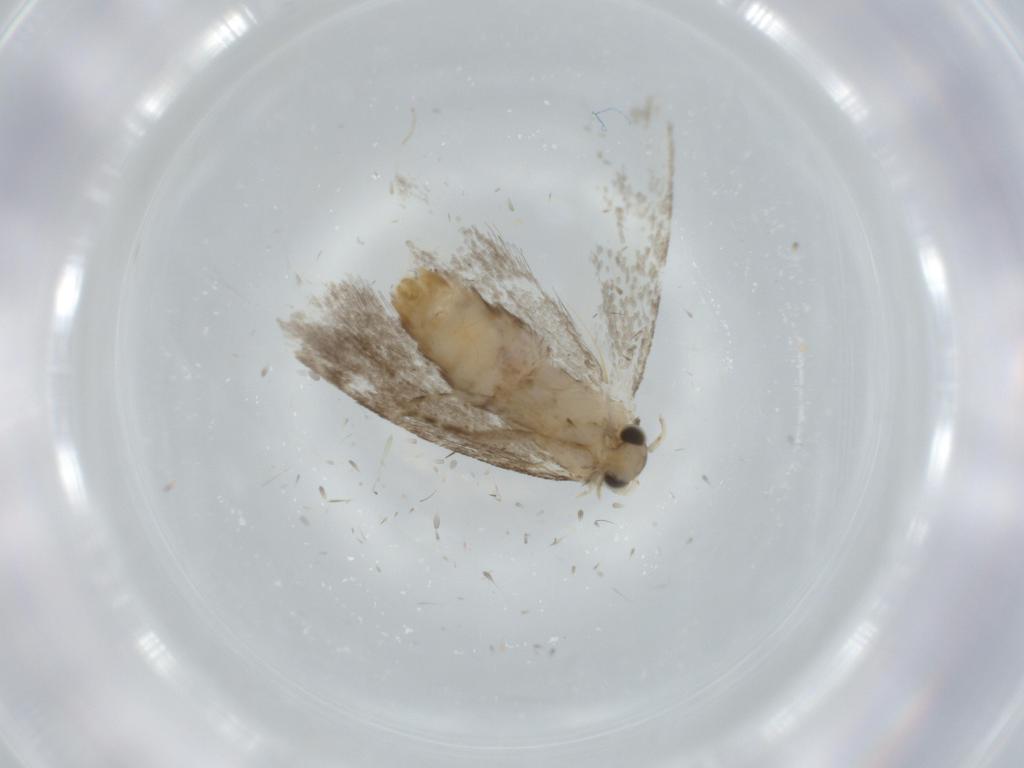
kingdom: Animalia
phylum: Arthropoda
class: Insecta
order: Lepidoptera
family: Tineidae
